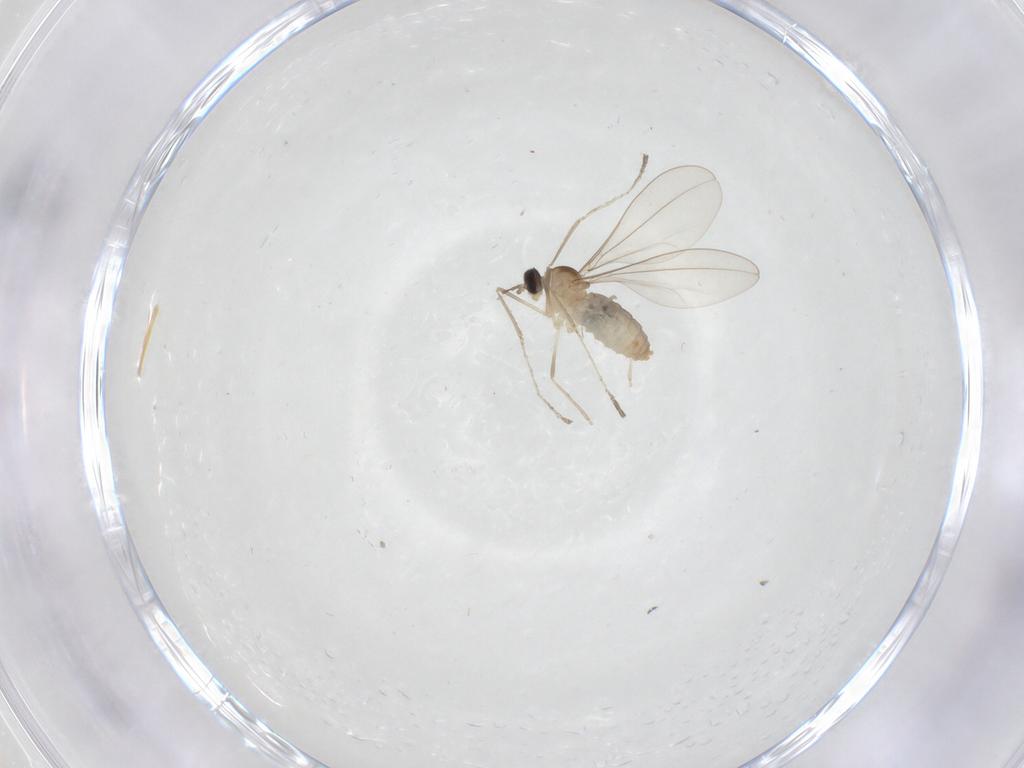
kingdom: Animalia
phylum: Arthropoda
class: Insecta
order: Diptera
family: Cecidomyiidae
